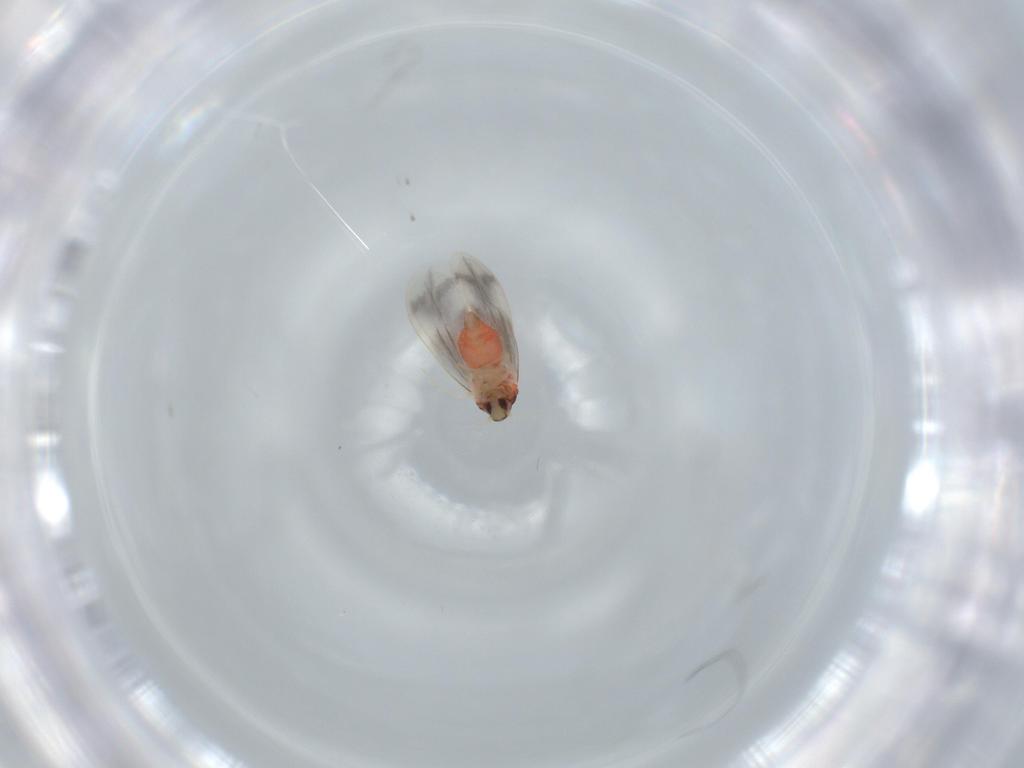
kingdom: Animalia
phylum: Arthropoda
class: Insecta
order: Hemiptera
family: Aleyrodidae
